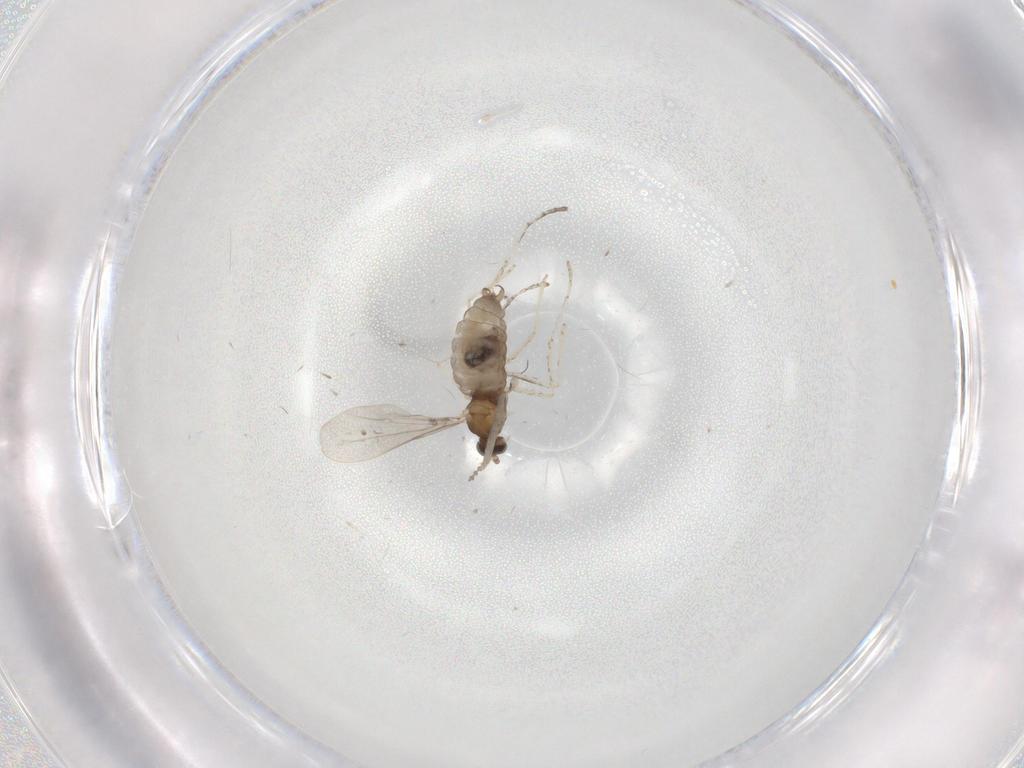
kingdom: Animalia
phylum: Arthropoda
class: Insecta
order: Diptera
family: Cecidomyiidae
